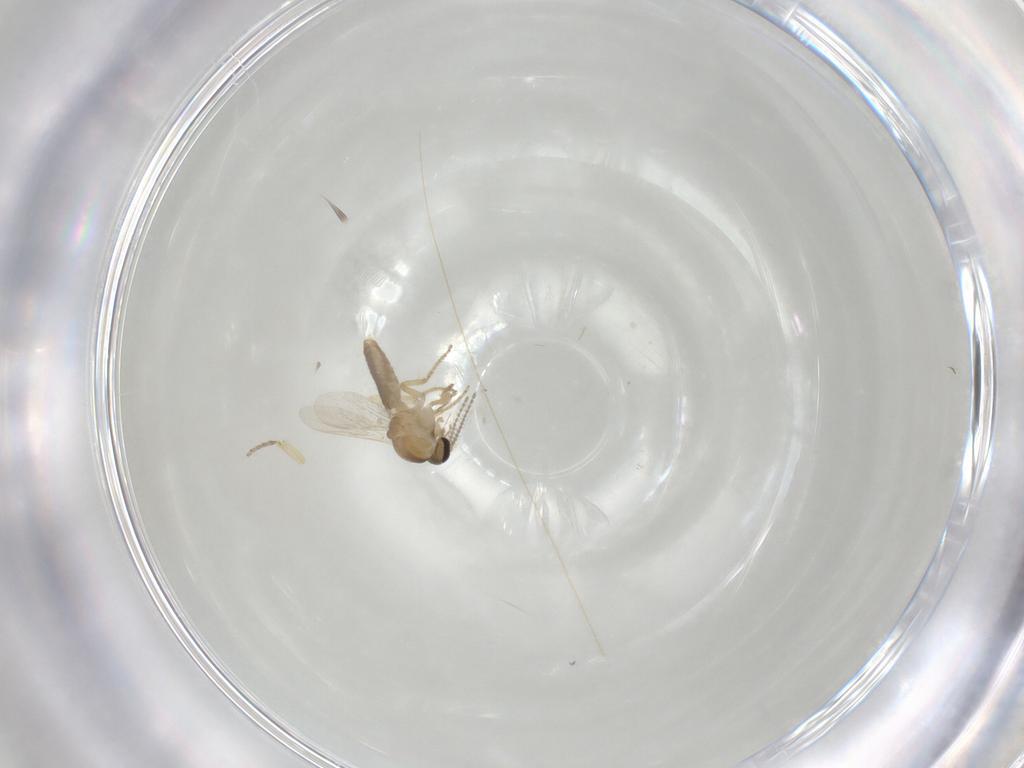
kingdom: Animalia
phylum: Arthropoda
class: Insecta
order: Diptera
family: Ceratopogonidae
